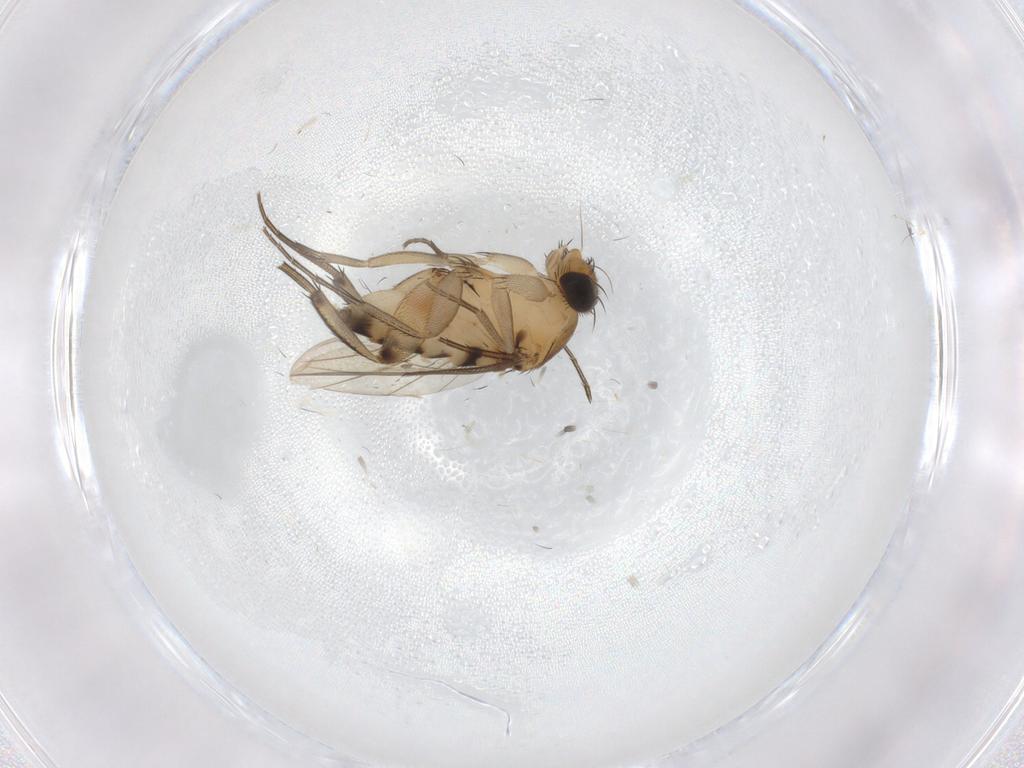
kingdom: Animalia
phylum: Arthropoda
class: Insecta
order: Diptera
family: Phoridae
